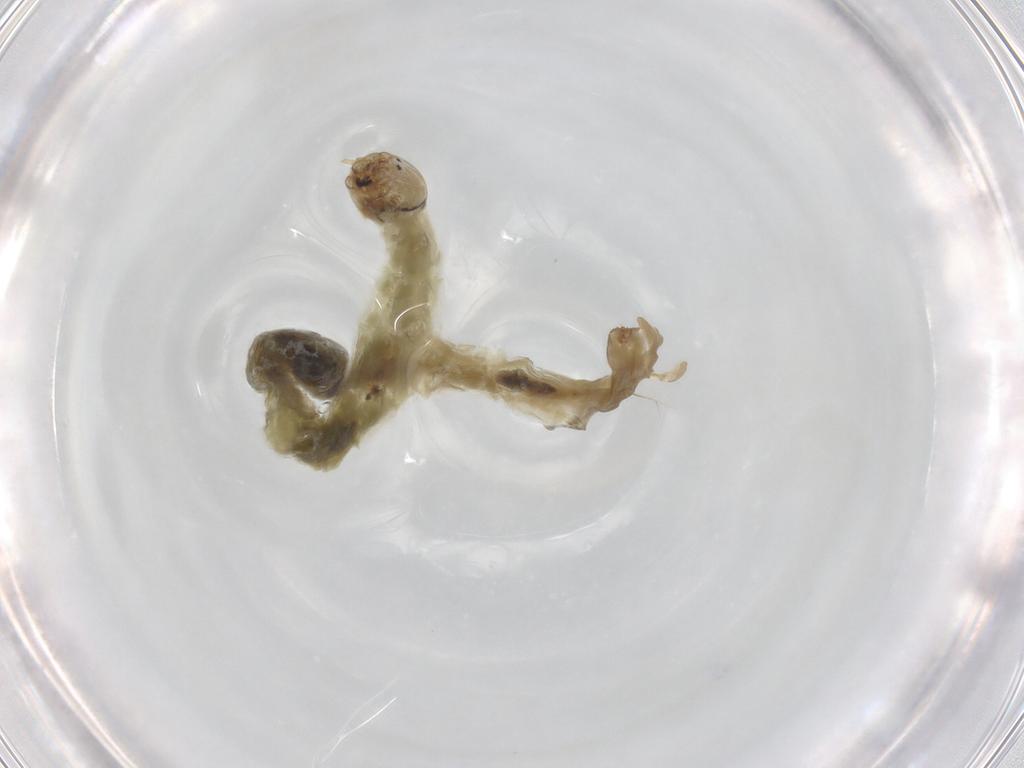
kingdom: Animalia
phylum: Arthropoda
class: Insecta
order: Diptera
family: Chironomidae
